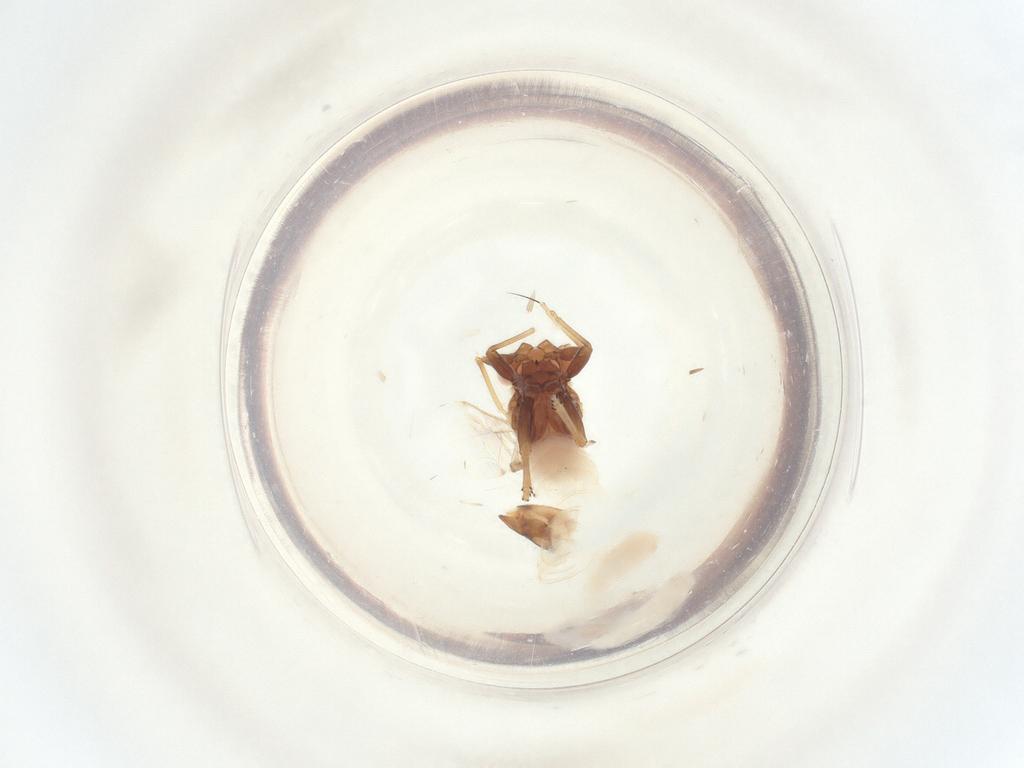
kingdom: Animalia
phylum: Arthropoda
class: Insecta
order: Hymenoptera
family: Chrysididae
